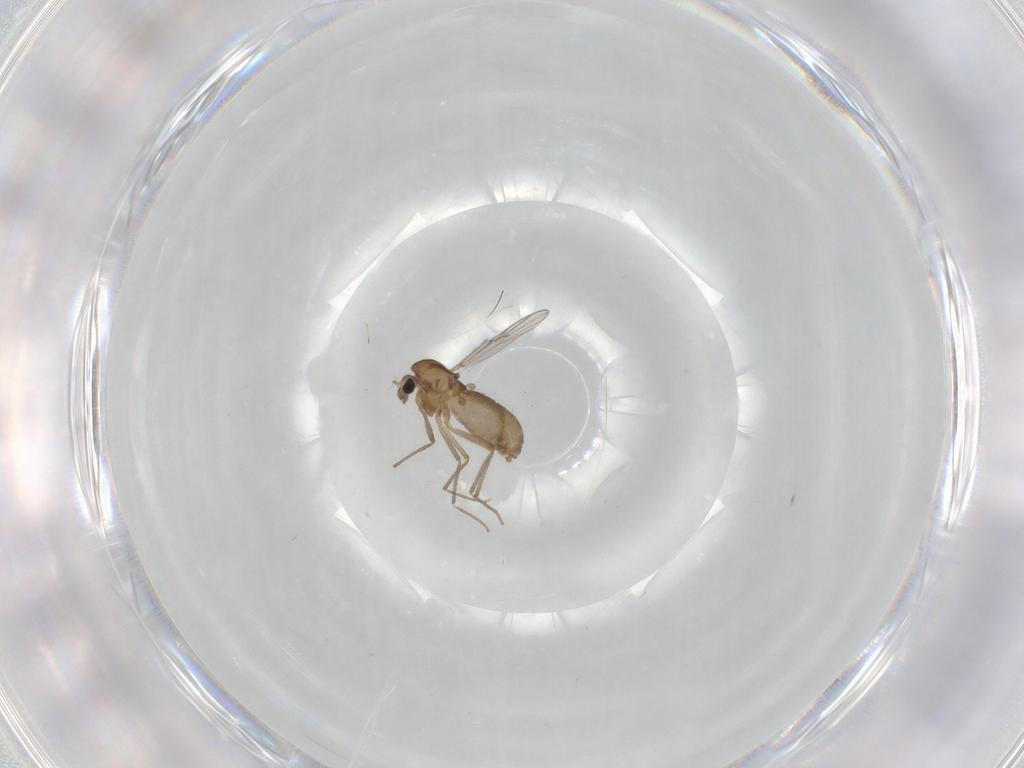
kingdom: Animalia
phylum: Arthropoda
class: Insecta
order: Diptera
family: Chironomidae
